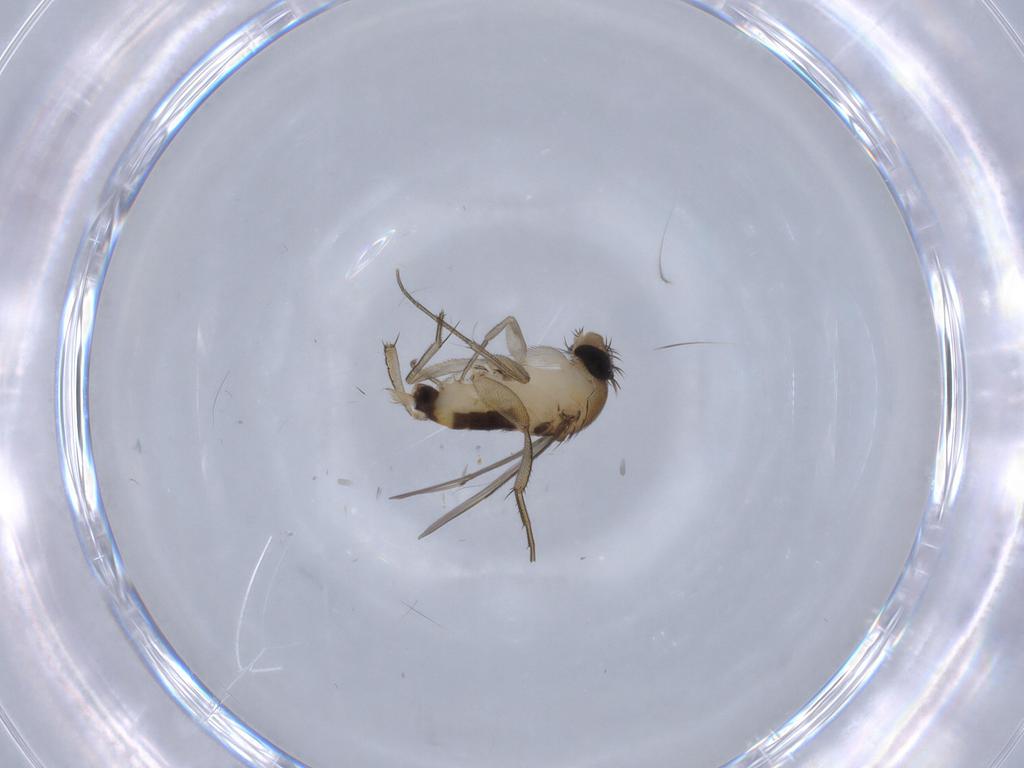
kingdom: Animalia
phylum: Arthropoda
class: Insecta
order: Diptera
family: Phoridae
